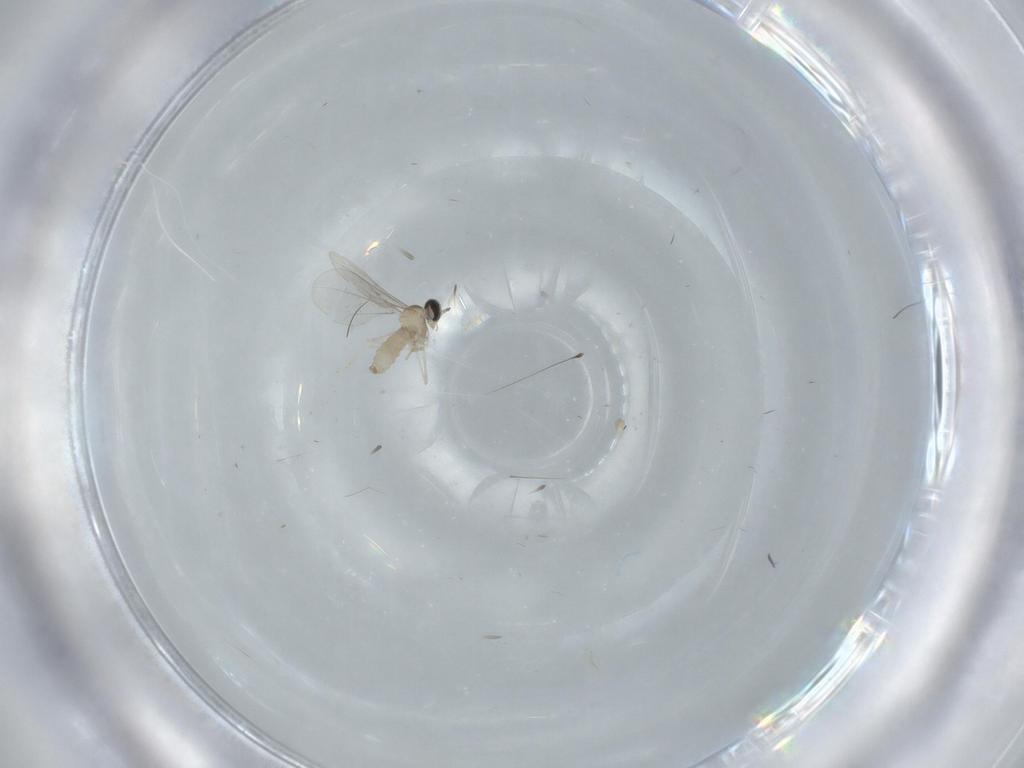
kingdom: Animalia
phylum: Arthropoda
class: Insecta
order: Diptera
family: Cecidomyiidae
